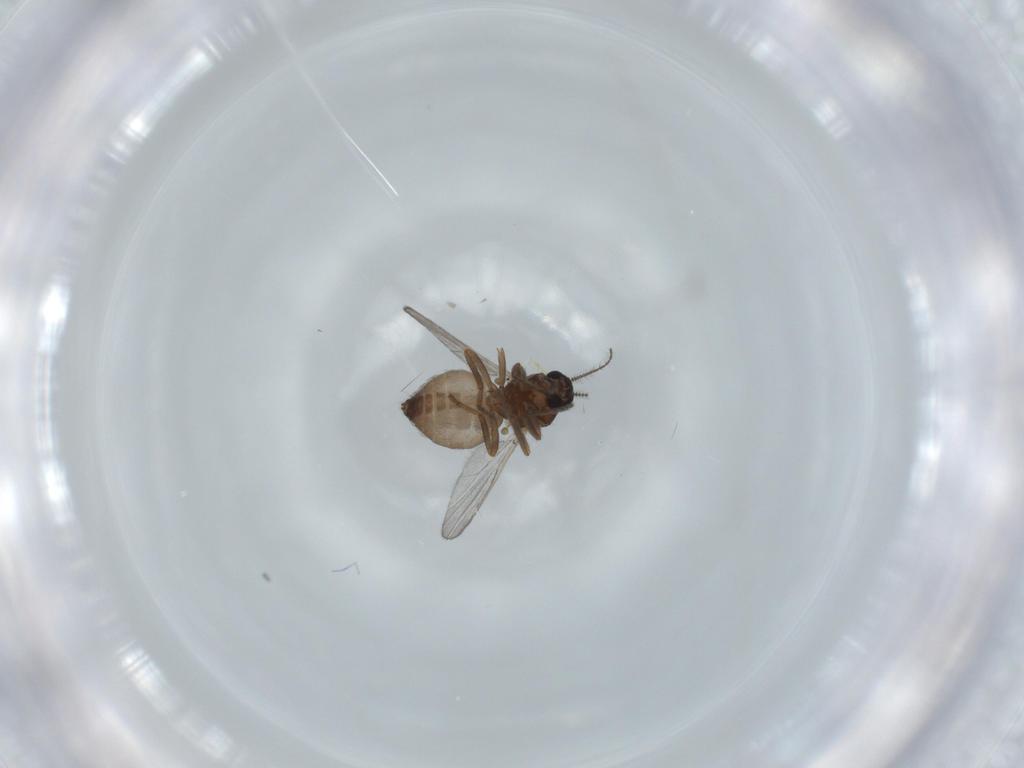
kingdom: Animalia
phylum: Arthropoda
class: Insecta
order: Diptera
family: Ceratopogonidae
